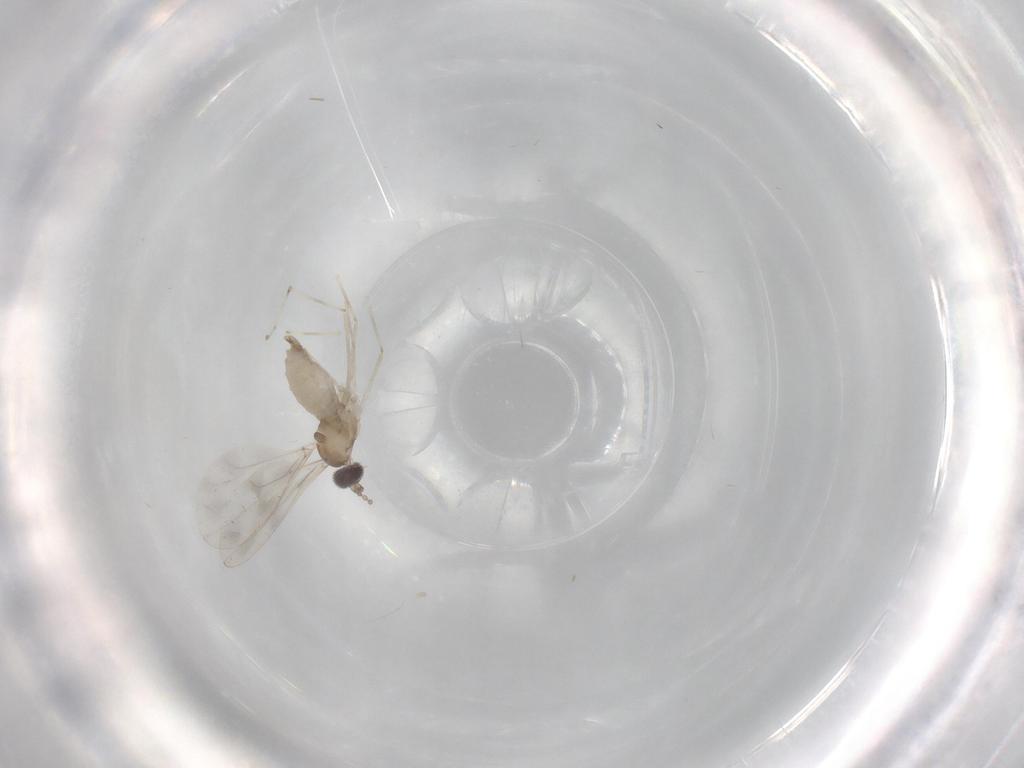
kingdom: Animalia
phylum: Arthropoda
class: Insecta
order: Diptera
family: Cecidomyiidae
